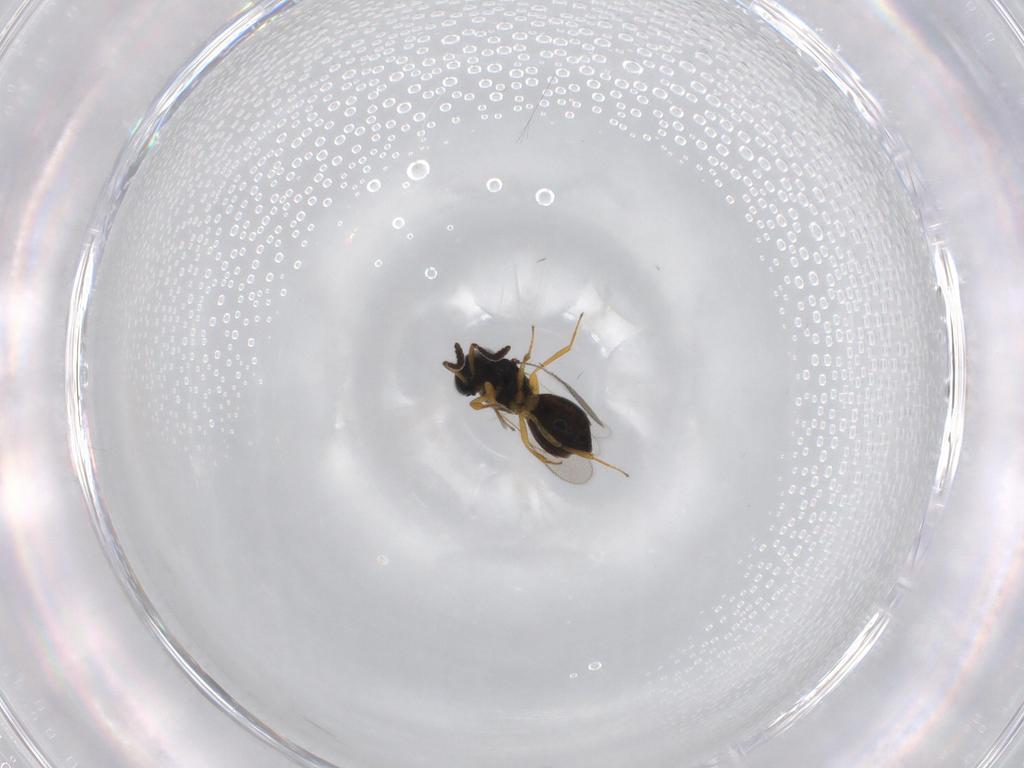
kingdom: Animalia
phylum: Arthropoda
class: Insecta
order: Hymenoptera
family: Scelionidae
